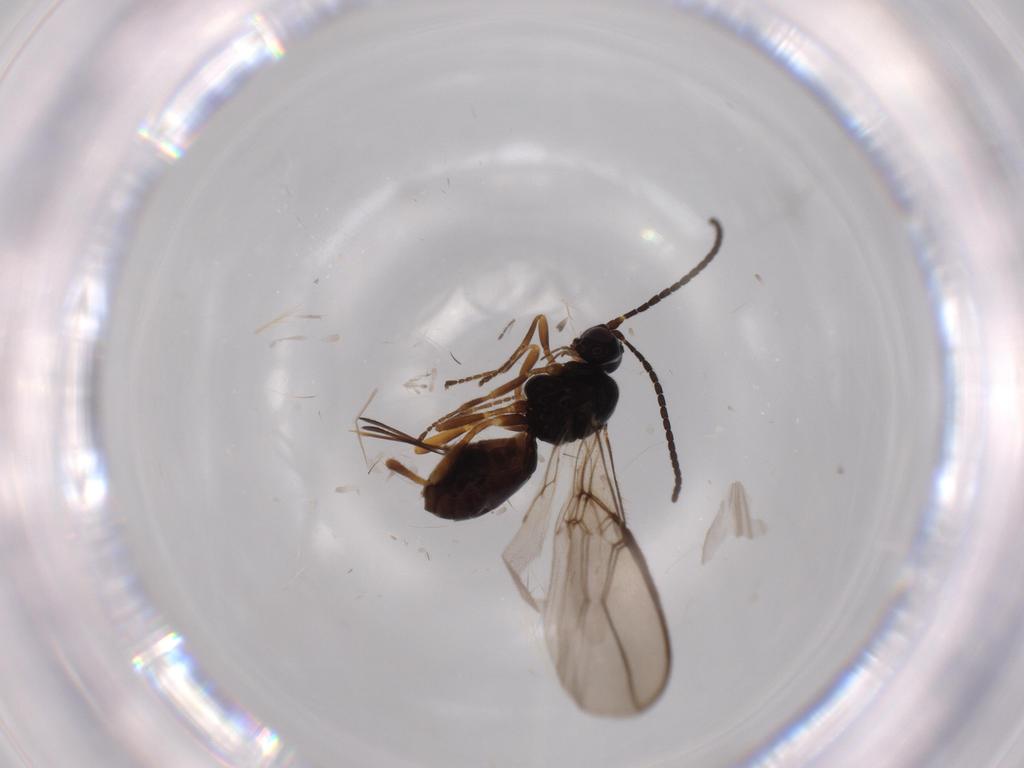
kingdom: Animalia
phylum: Arthropoda
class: Insecta
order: Hymenoptera
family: Braconidae
